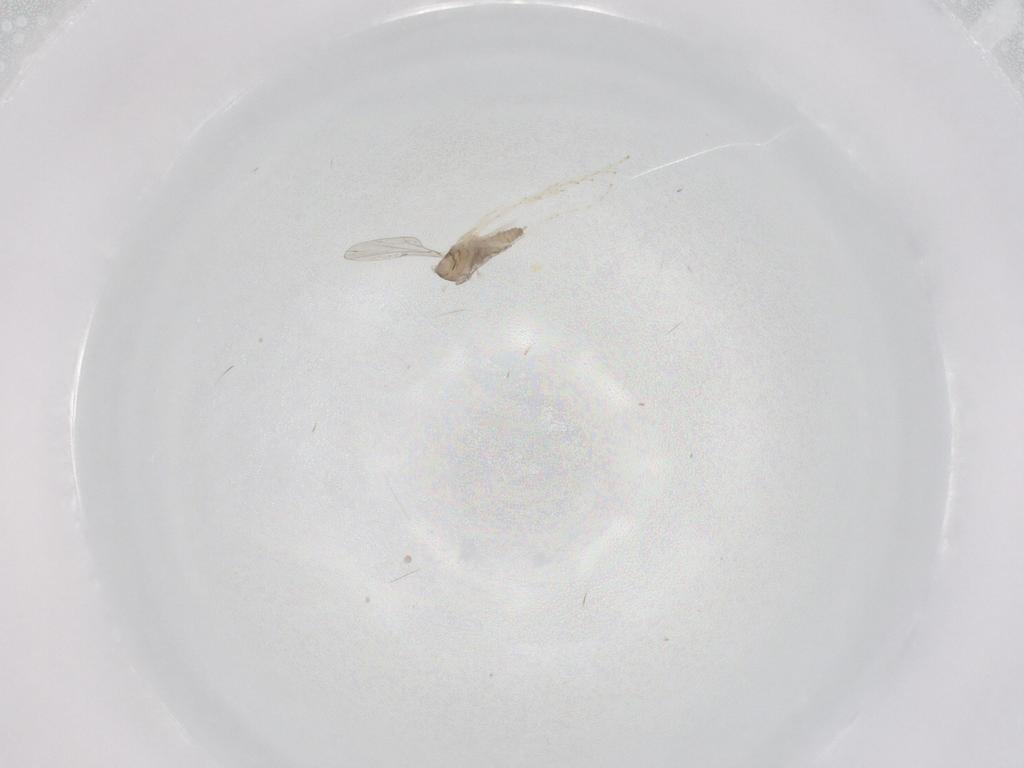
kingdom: Animalia
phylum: Arthropoda
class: Insecta
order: Diptera
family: Cecidomyiidae
